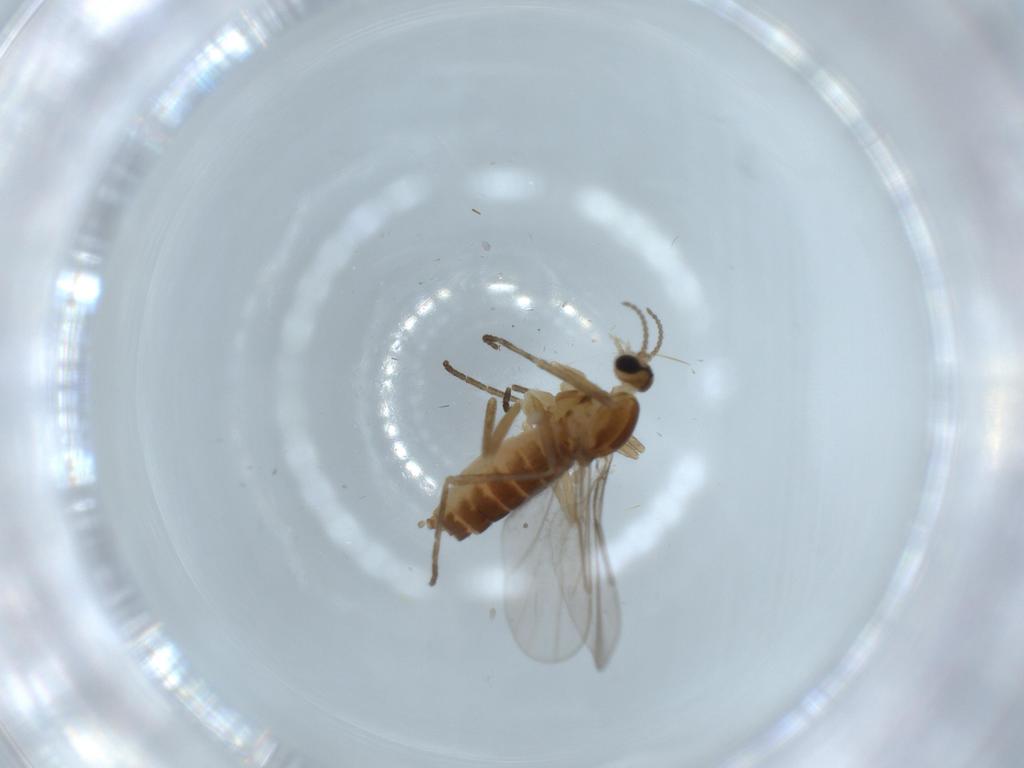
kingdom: Animalia
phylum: Arthropoda
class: Insecta
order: Diptera
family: Cecidomyiidae
